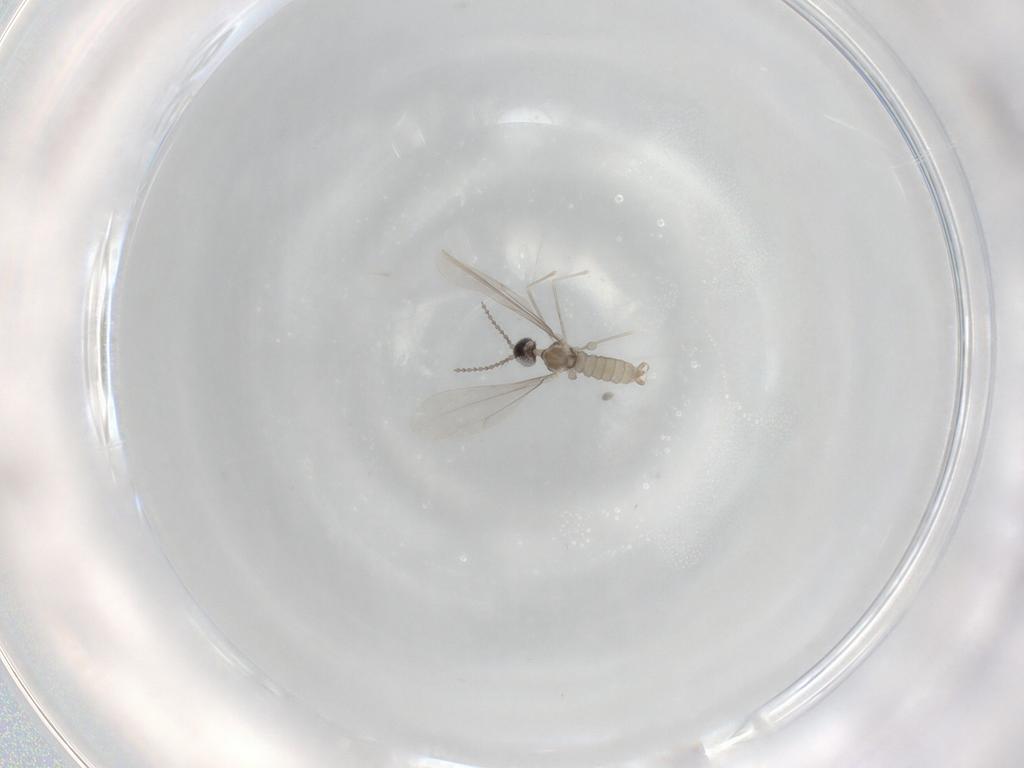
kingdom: Animalia
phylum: Arthropoda
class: Insecta
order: Diptera
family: Cecidomyiidae
